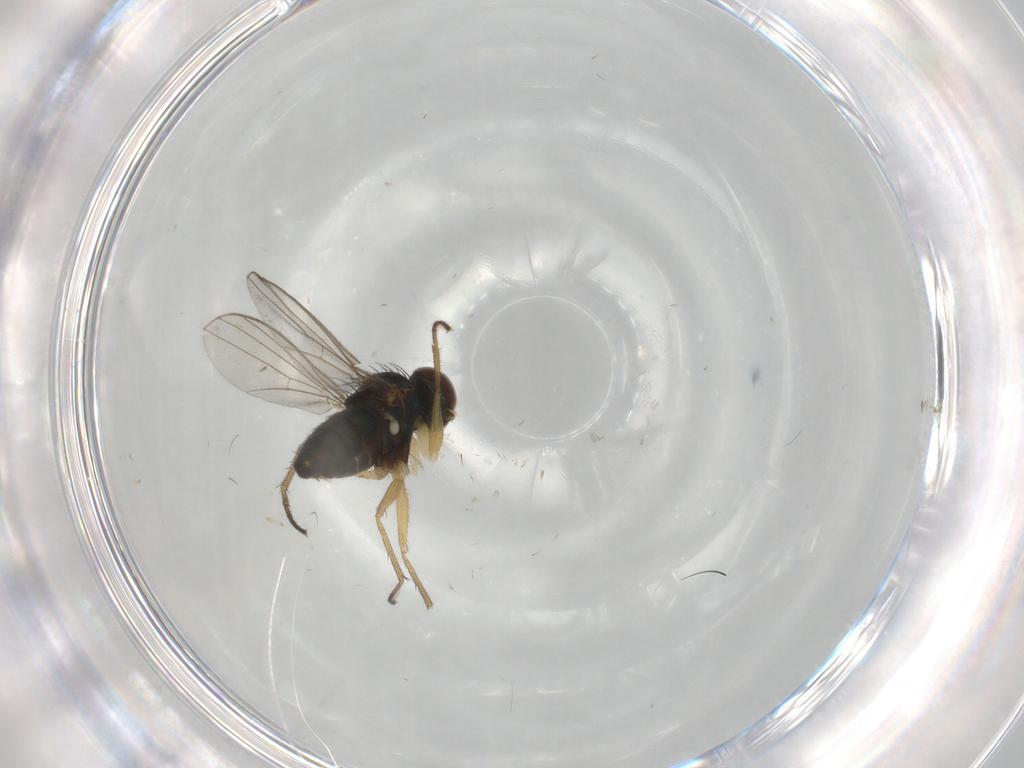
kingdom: Animalia
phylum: Arthropoda
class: Insecta
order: Diptera
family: Dolichopodidae
